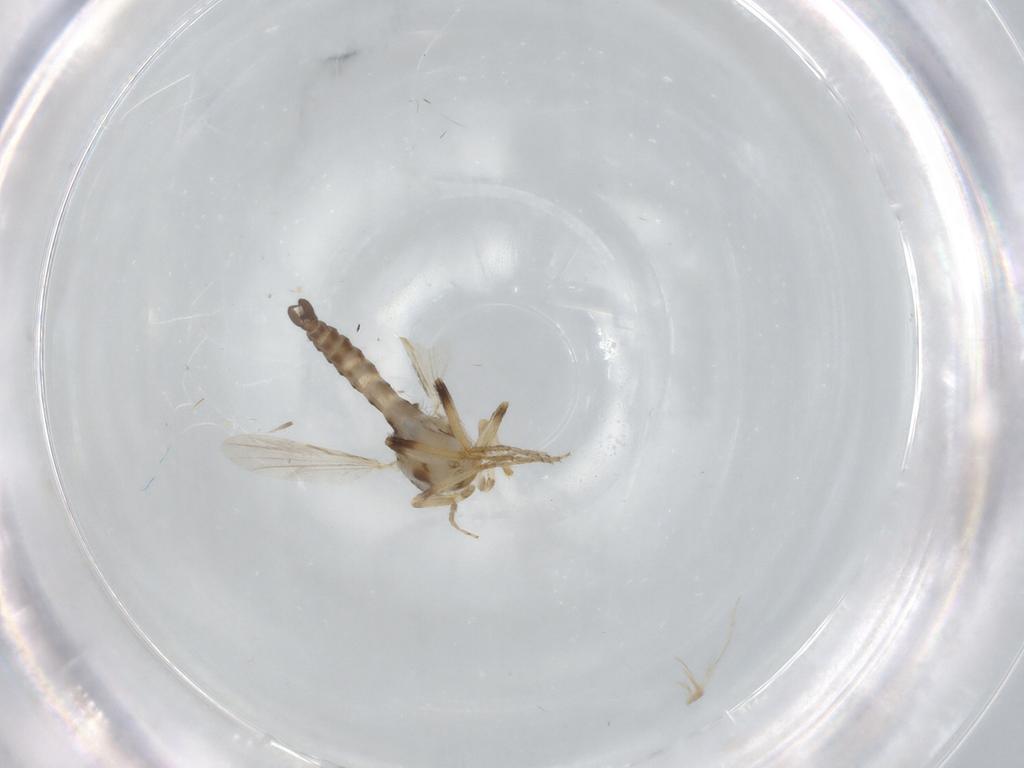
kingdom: Animalia
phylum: Arthropoda
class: Insecta
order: Diptera
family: Ceratopogonidae
